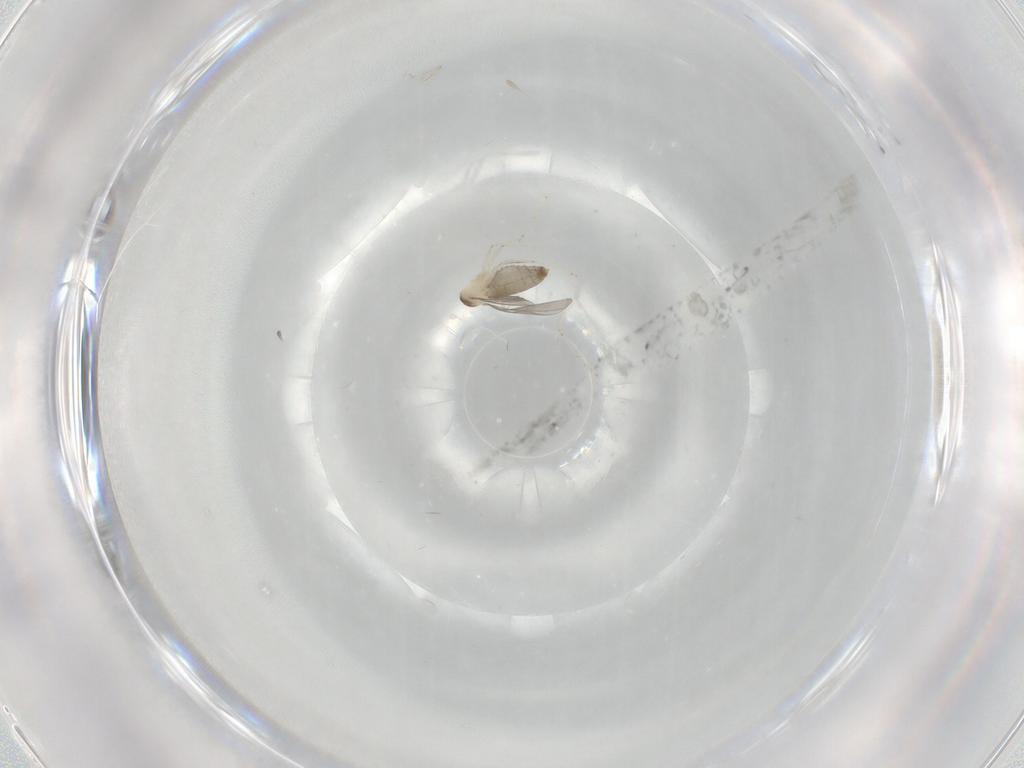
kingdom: Animalia
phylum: Arthropoda
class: Insecta
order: Diptera
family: Cecidomyiidae
